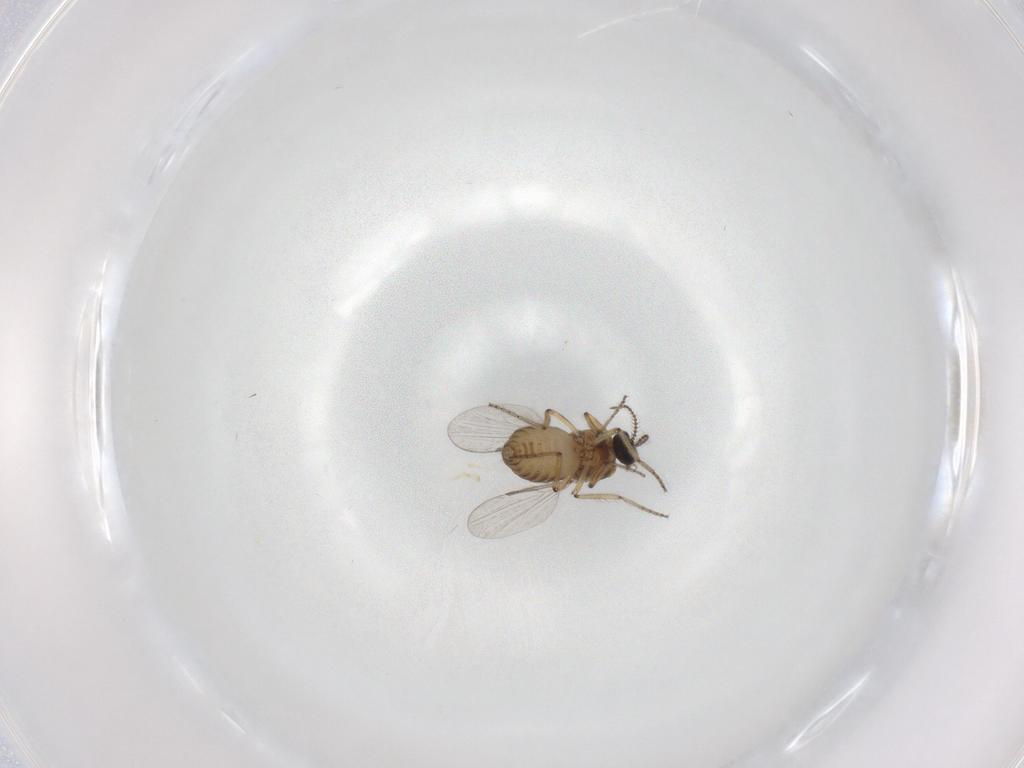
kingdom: Animalia
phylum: Arthropoda
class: Insecta
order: Diptera
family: Ceratopogonidae
